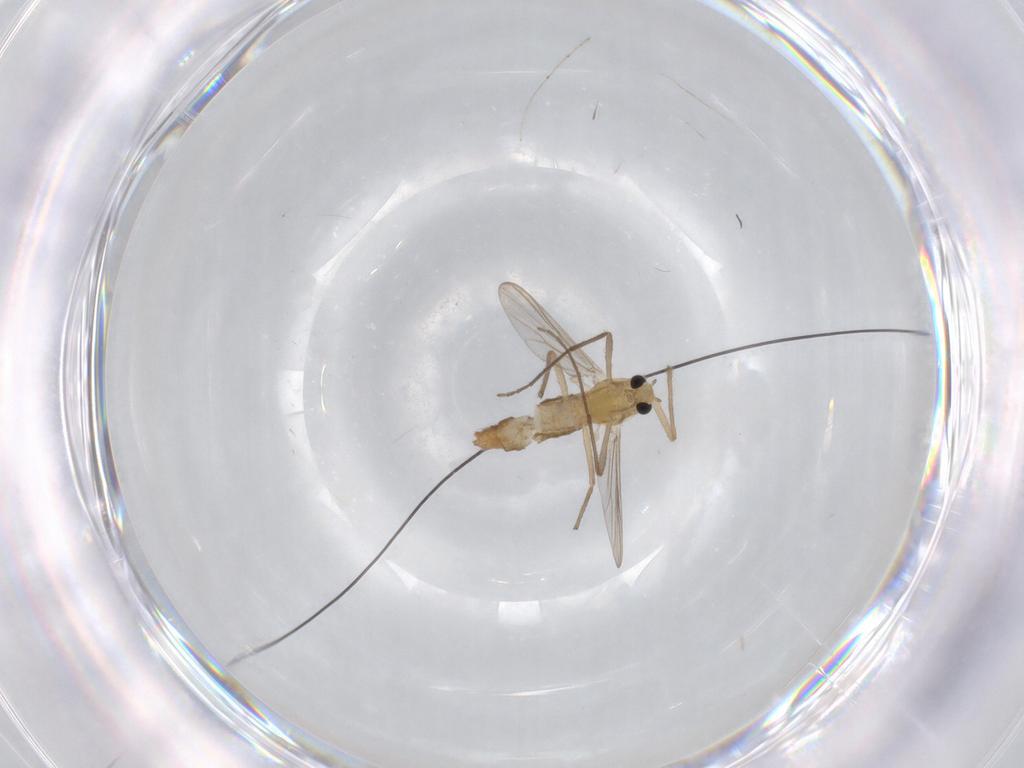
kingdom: Animalia
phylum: Arthropoda
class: Insecta
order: Diptera
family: Chironomidae
